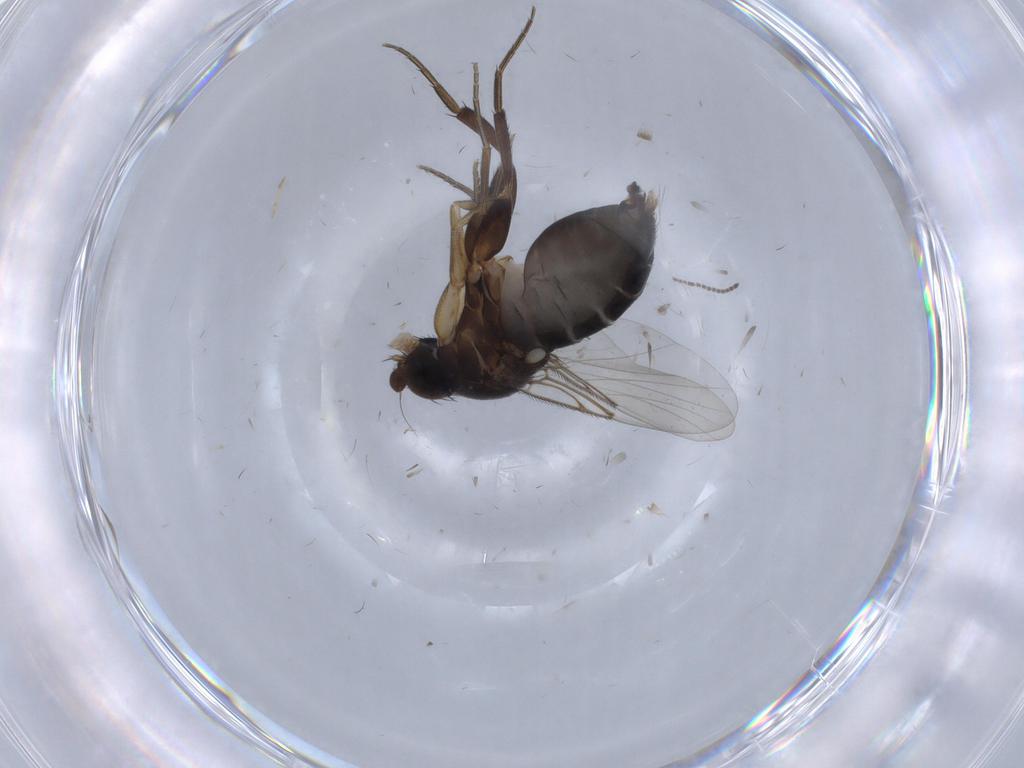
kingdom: Animalia
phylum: Arthropoda
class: Insecta
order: Diptera
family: Phoridae
